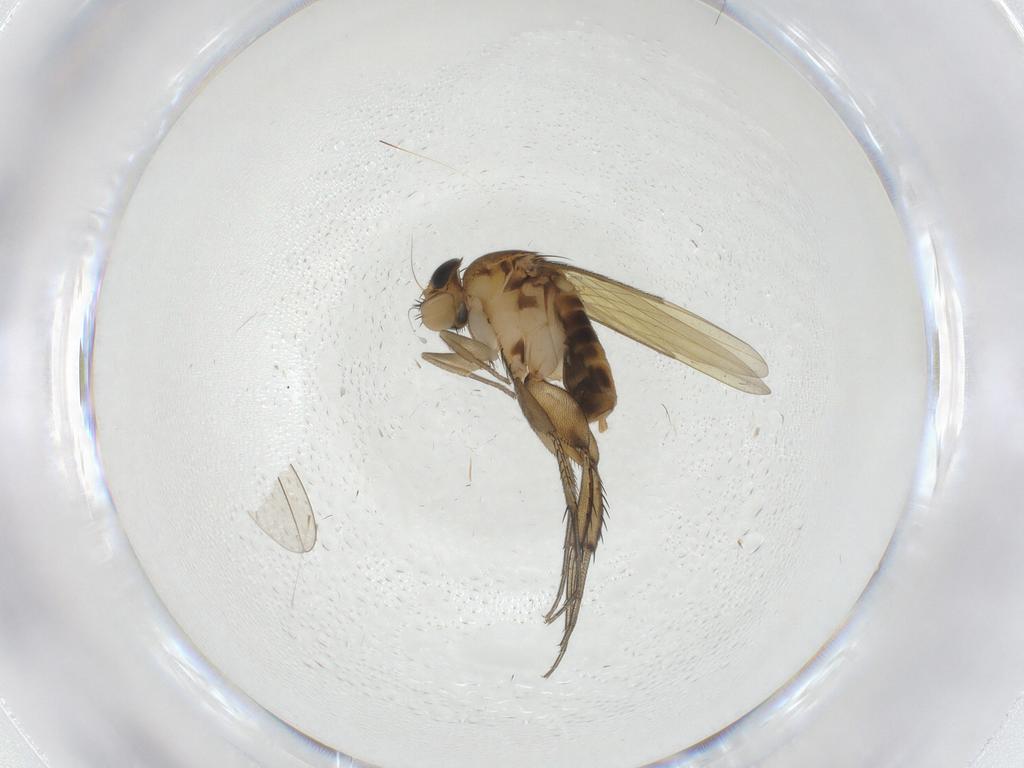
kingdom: Animalia
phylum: Arthropoda
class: Insecta
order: Diptera
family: Phoridae
